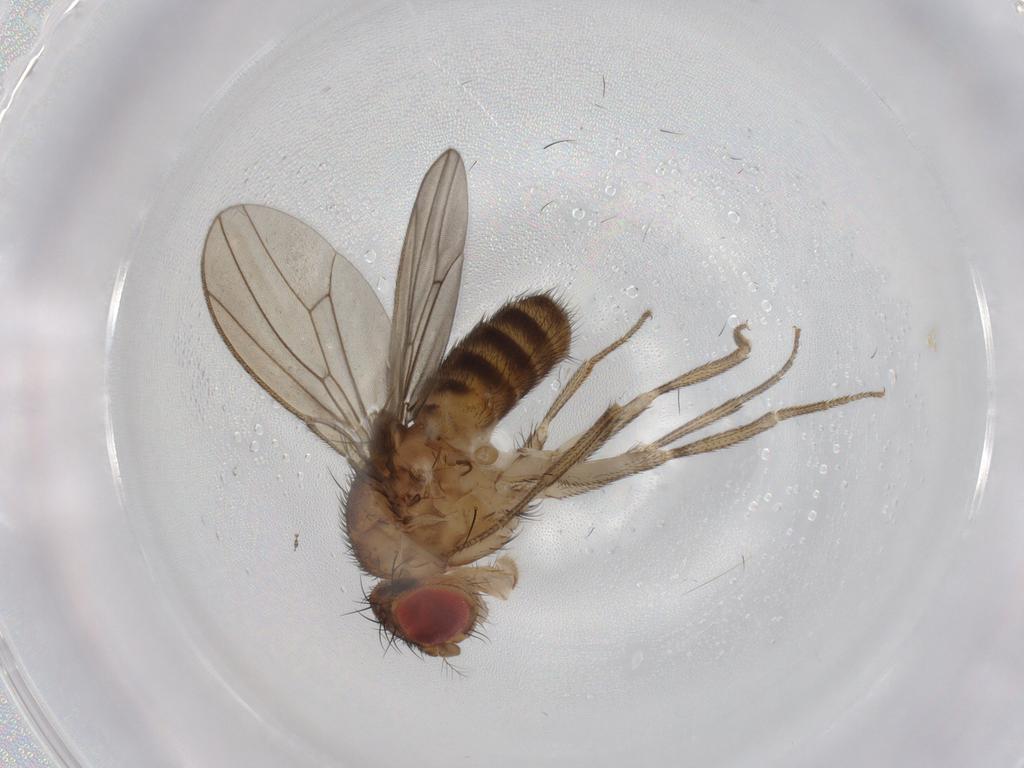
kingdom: Animalia
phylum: Arthropoda
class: Insecta
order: Diptera
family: Drosophilidae
